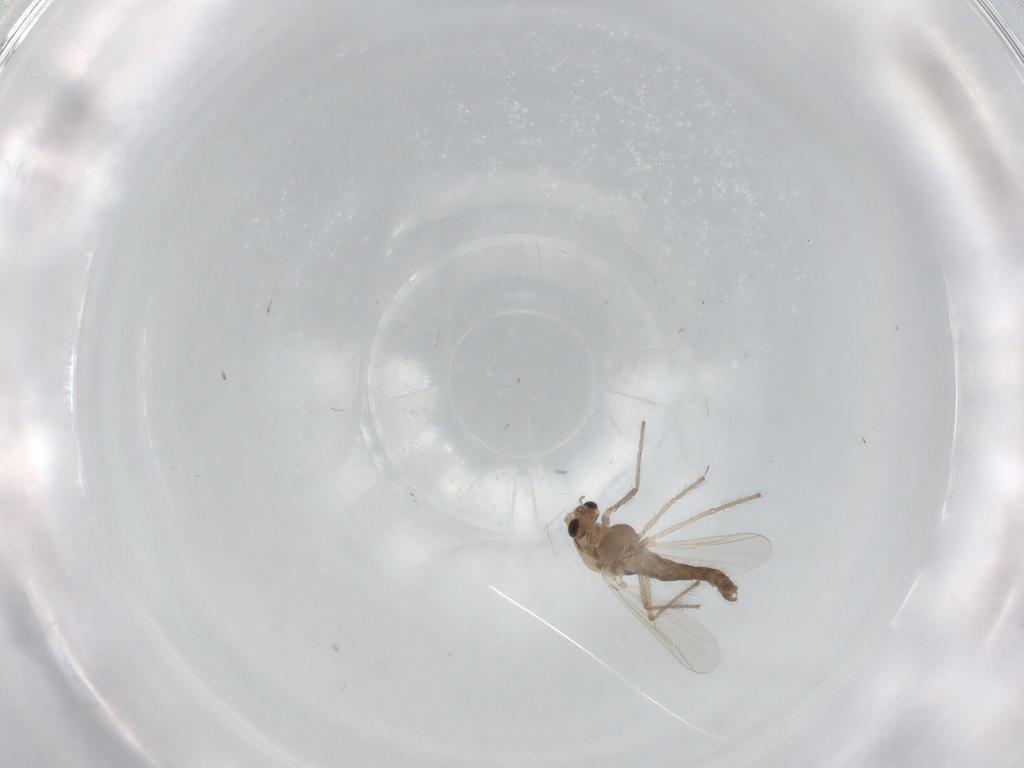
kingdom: Animalia
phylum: Arthropoda
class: Insecta
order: Diptera
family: Chironomidae
